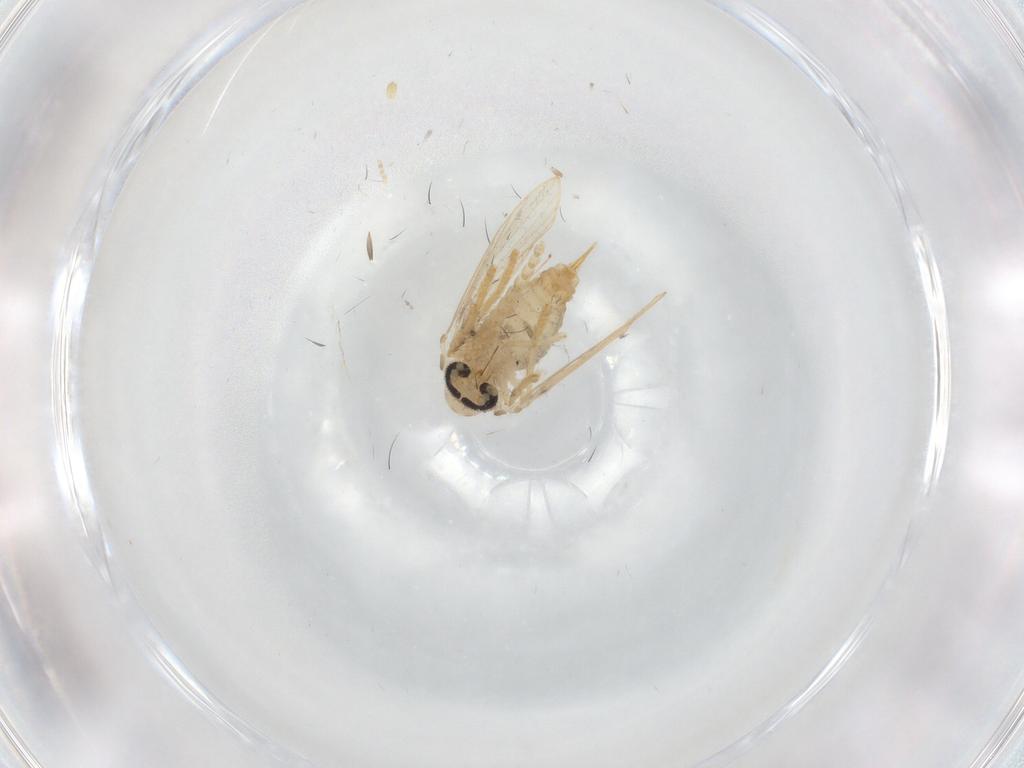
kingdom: Animalia
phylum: Arthropoda
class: Insecta
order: Diptera
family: Psychodidae
